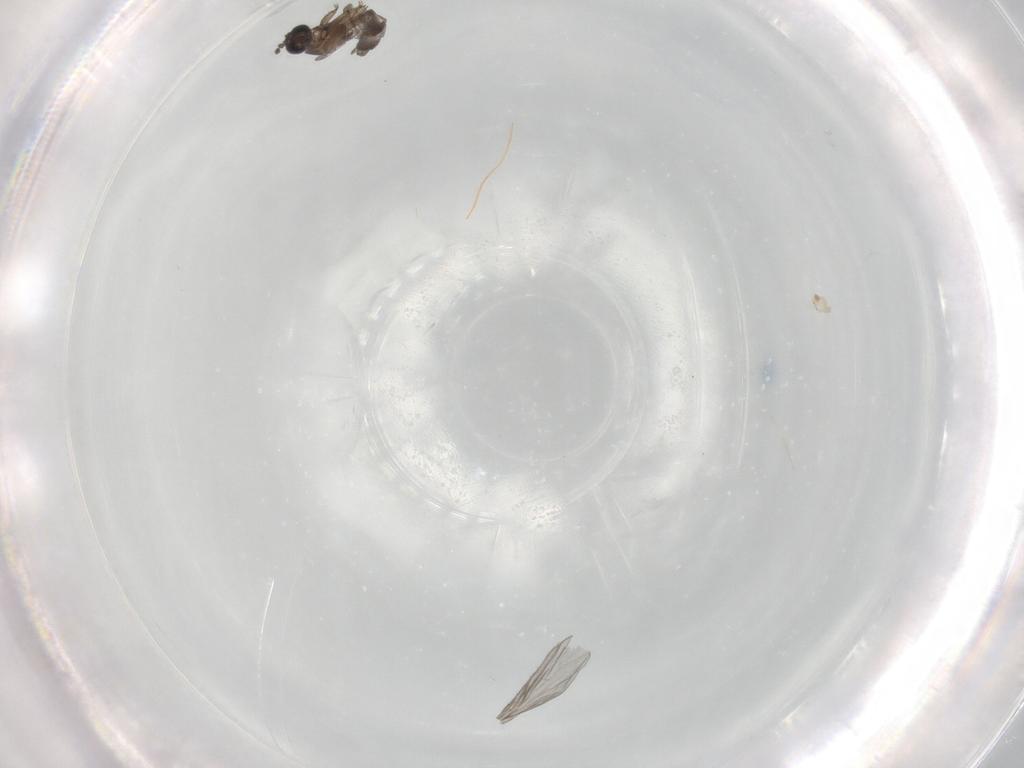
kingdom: Animalia
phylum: Arthropoda
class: Insecta
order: Diptera
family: Cecidomyiidae
